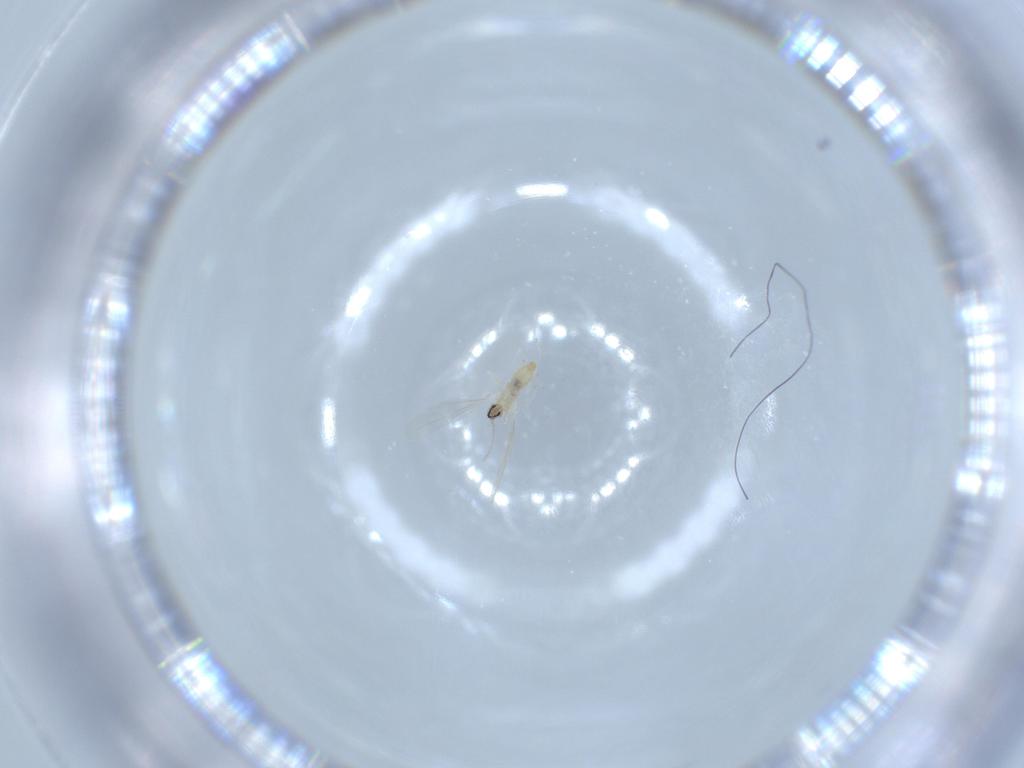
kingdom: Animalia
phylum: Arthropoda
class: Insecta
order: Diptera
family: Cecidomyiidae
